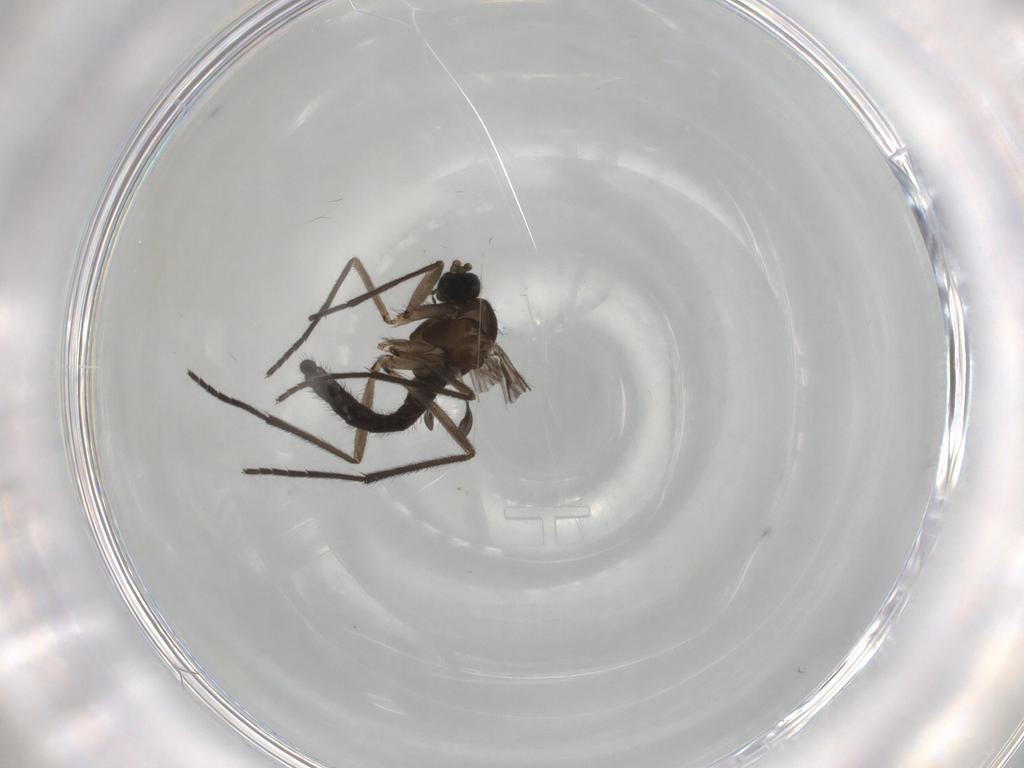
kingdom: Animalia
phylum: Arthropoda
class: Insecta
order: Diptera
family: Sciaridae
